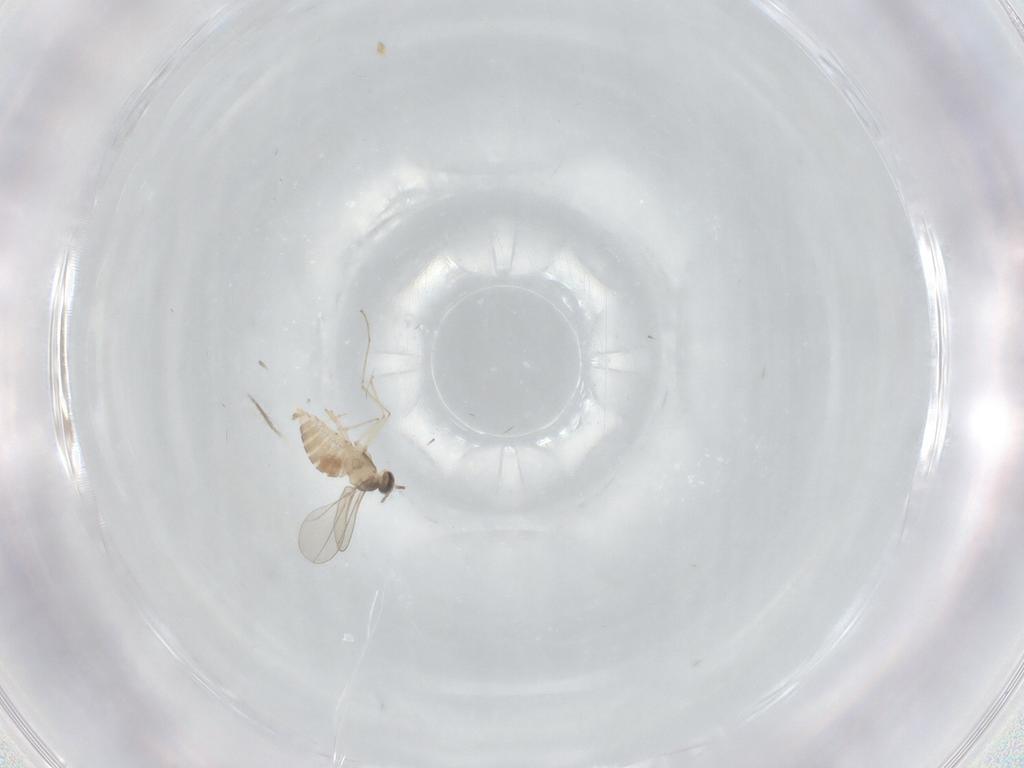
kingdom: Animalia
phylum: Arthropoda
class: Insecta
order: Diptera
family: Cecidomyiidae
